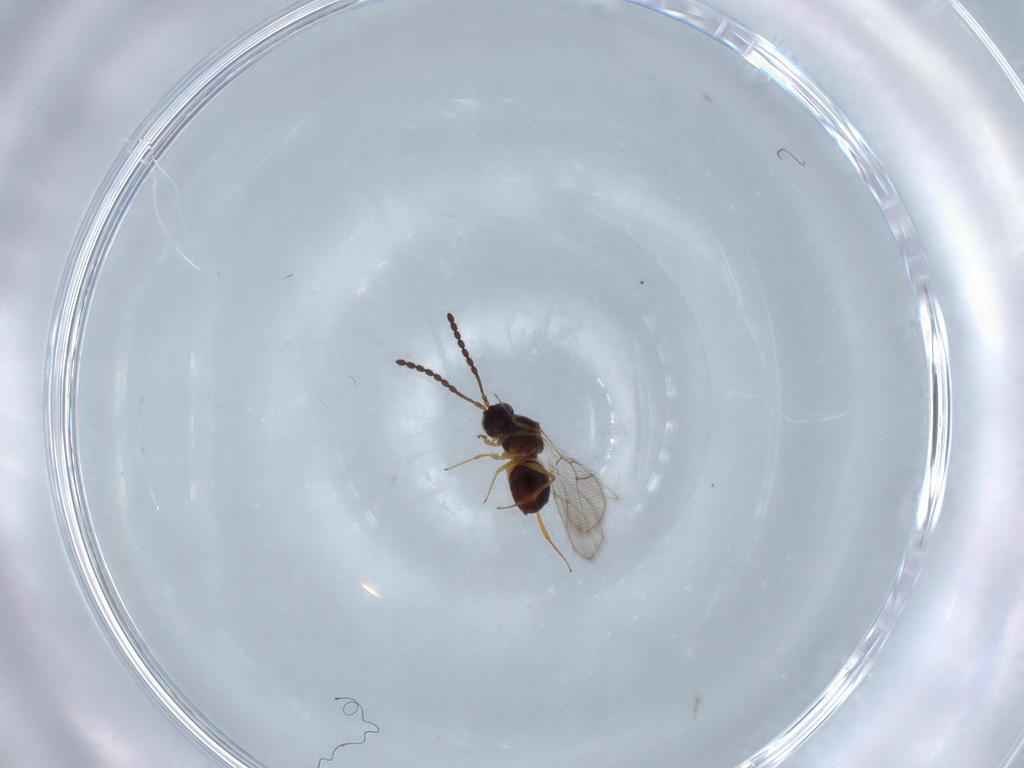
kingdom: Animalia
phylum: Arthropoda
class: Insecta
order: Hymenoptera
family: Figitidae
